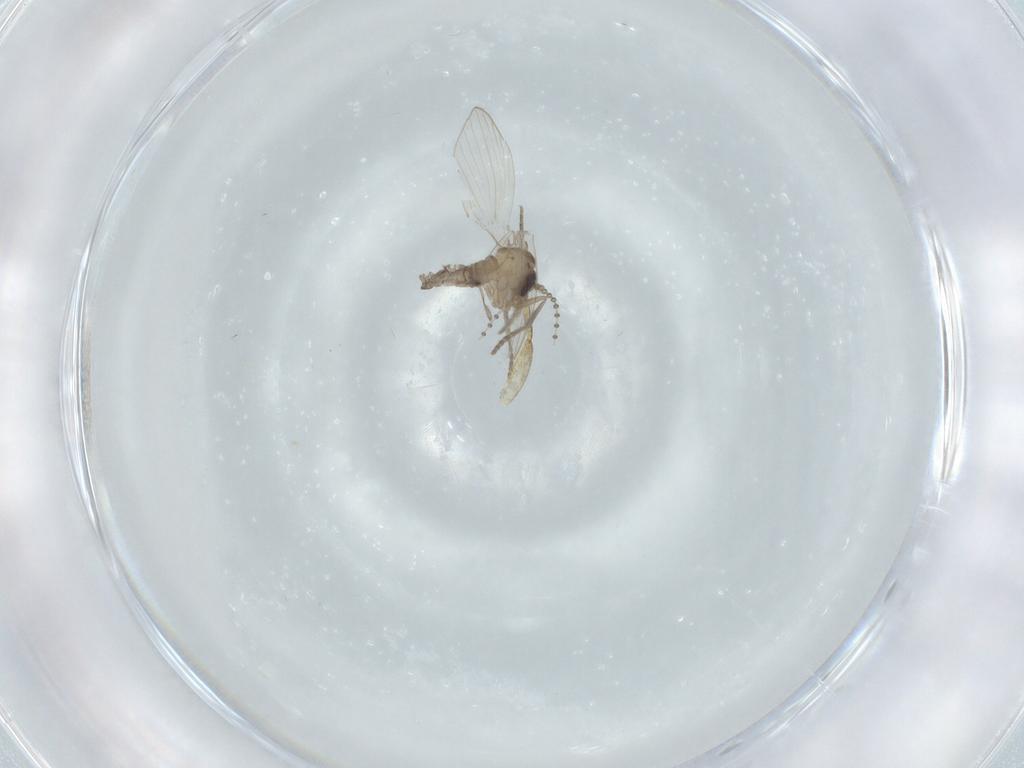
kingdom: Animalia
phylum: Arthropoda
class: Insecta
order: Diptera
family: Psychodidae
